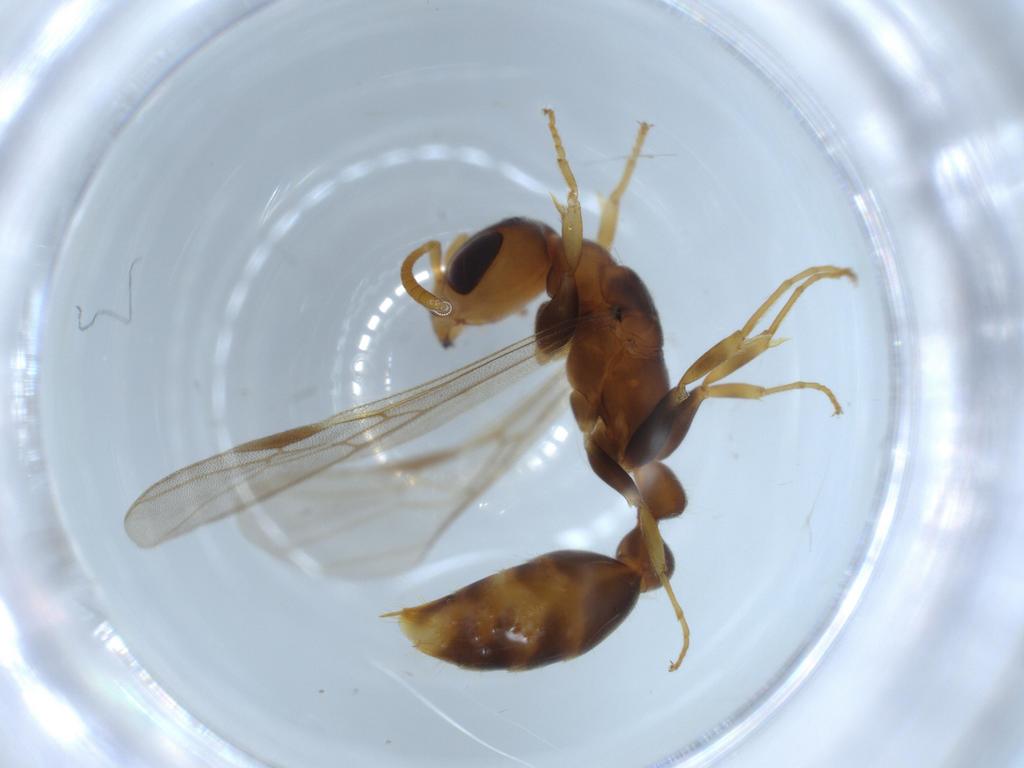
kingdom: Animalia
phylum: Arthropoda
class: Insecta
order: Hymenoptera
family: Formicidae
